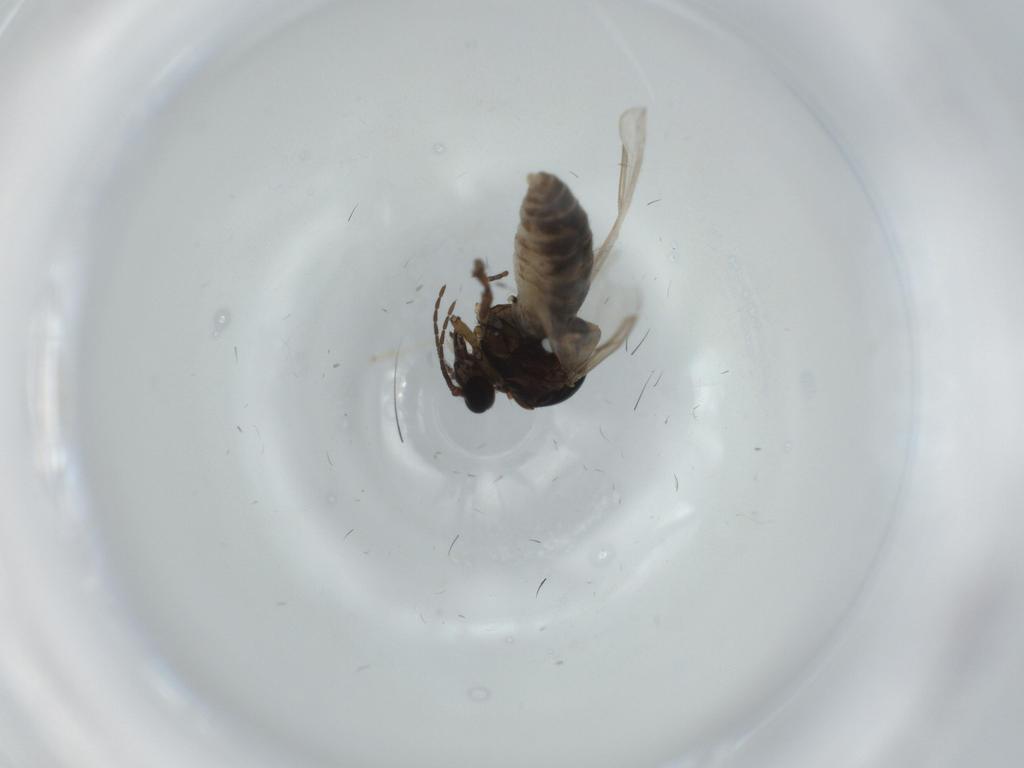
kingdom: Animalia
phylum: Arthropoda
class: Insecta
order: Diptera
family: Ceratopogonidae
